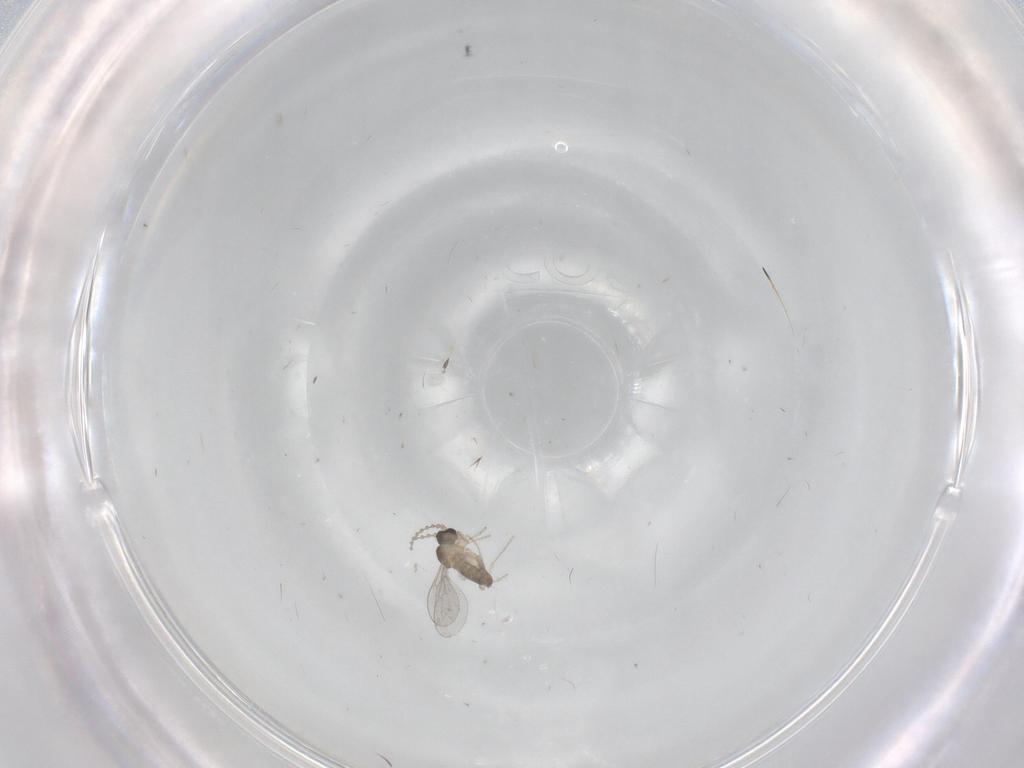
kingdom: Animalia
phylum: Arthropoda
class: Insecta
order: Diptera
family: Cecidomyiidae
